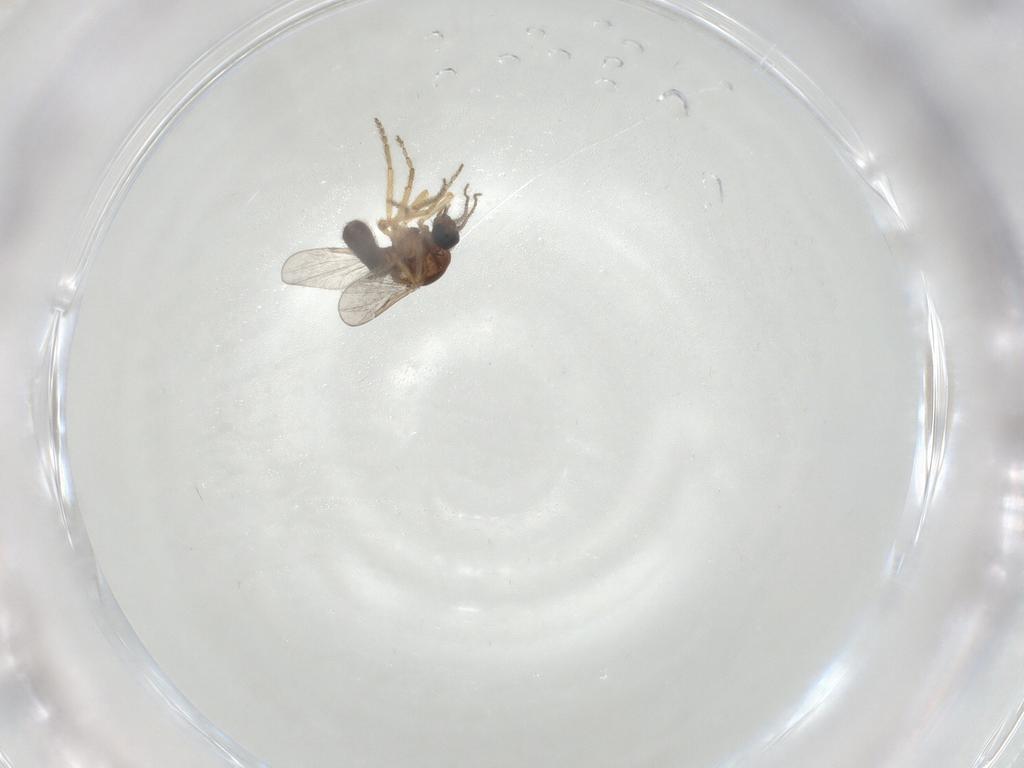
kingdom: Animalia
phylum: Arthropoda
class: Insecta
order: Diptera
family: Ceratopogonidae
